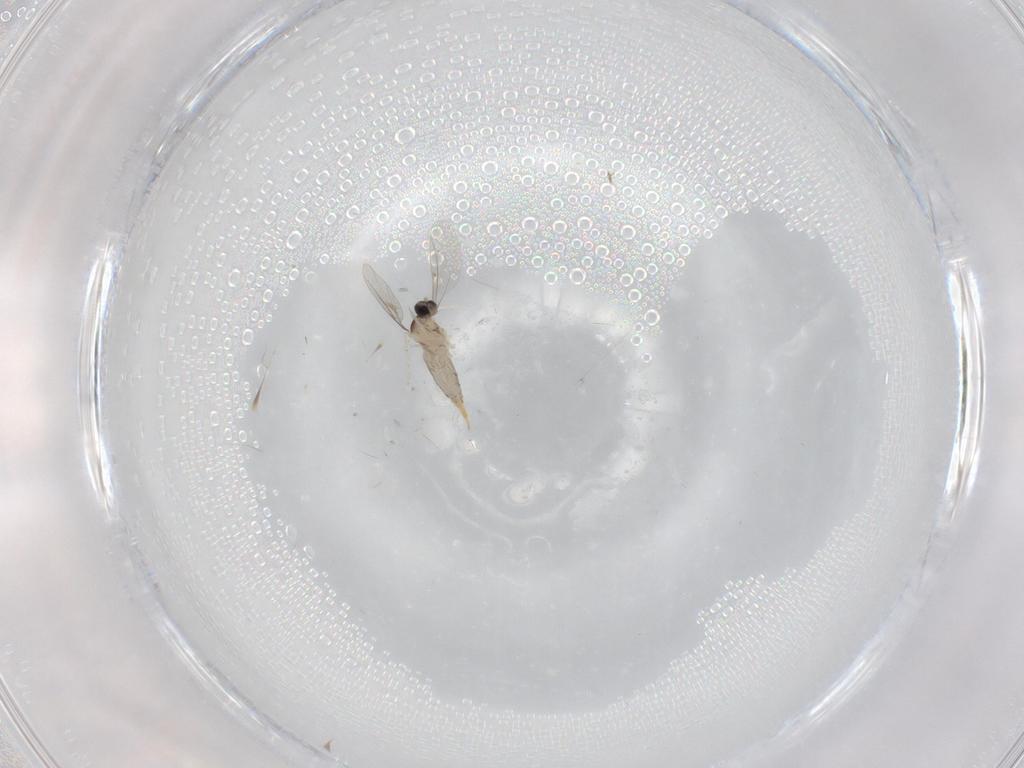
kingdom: Animalia
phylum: Arthropoda
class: Insecta
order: Diptera
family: Cecidomyiidae
